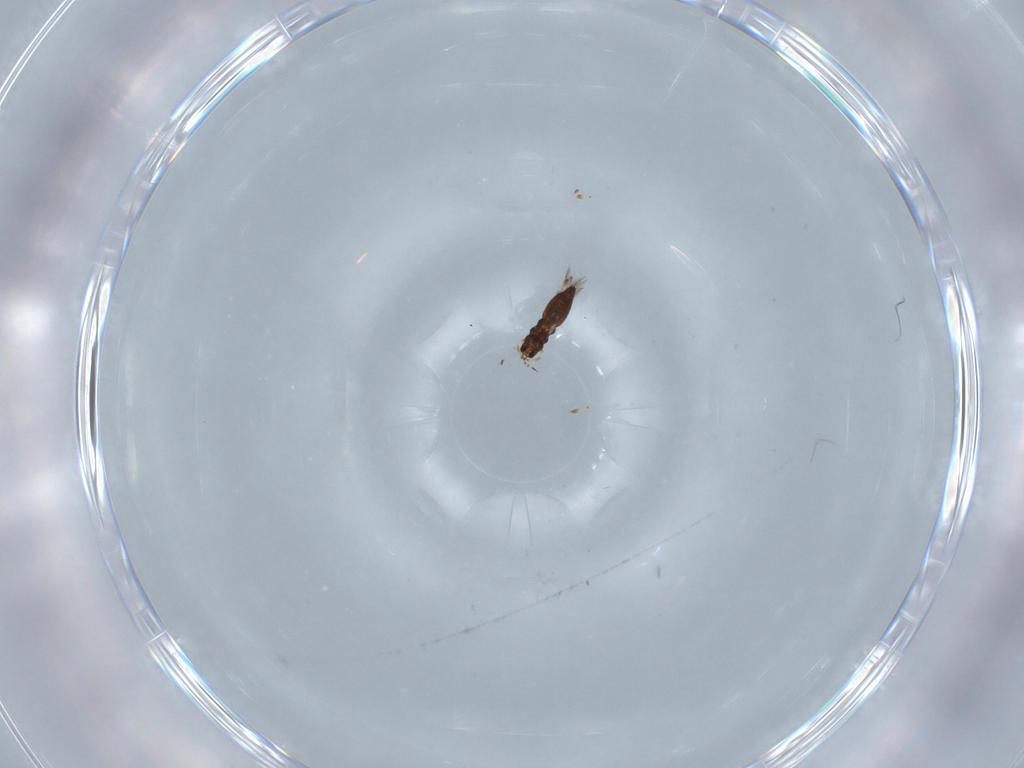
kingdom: Animalia
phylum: Arthropoda
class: Insecta
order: Thysanoptera
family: Thripidae
